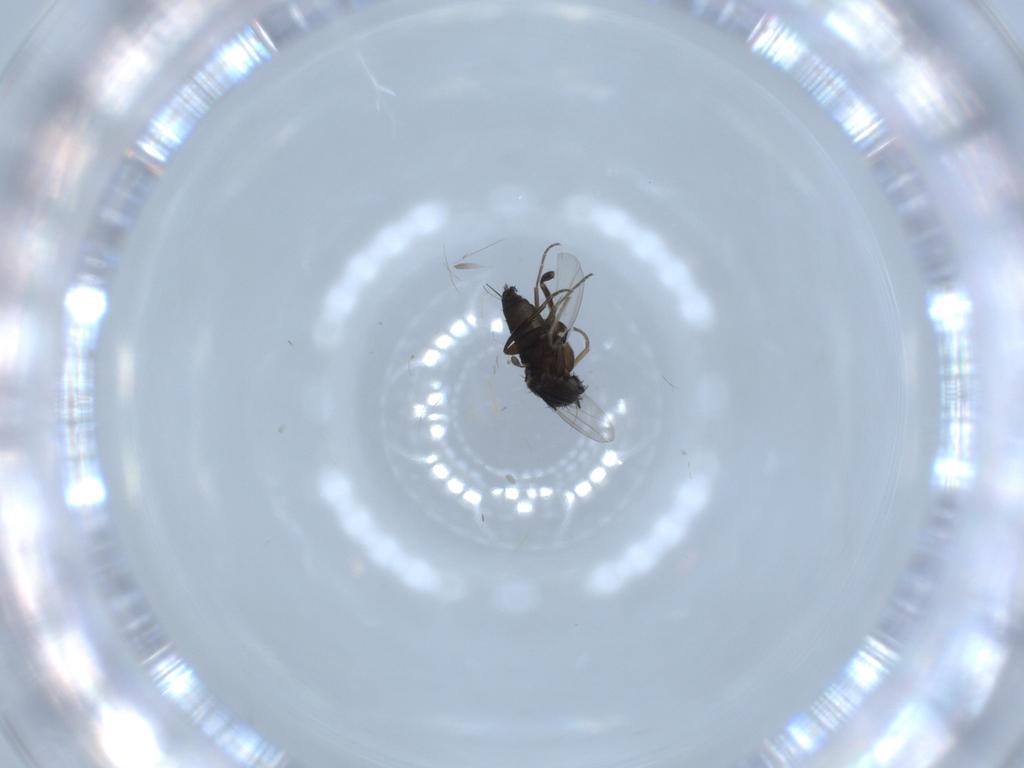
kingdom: Animalia
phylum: Arthropoda
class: Insecta
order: Diptera
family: Phoridae
